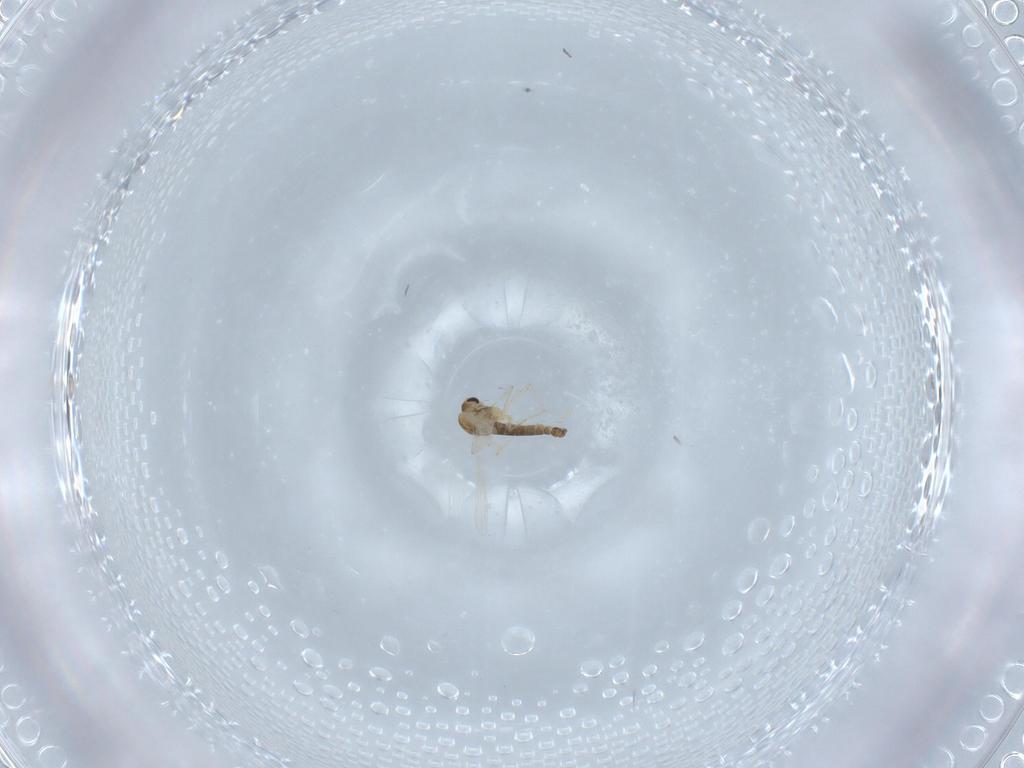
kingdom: Animalia
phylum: Arthropoda
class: Insecta
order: Diptera
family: Chironomidae
